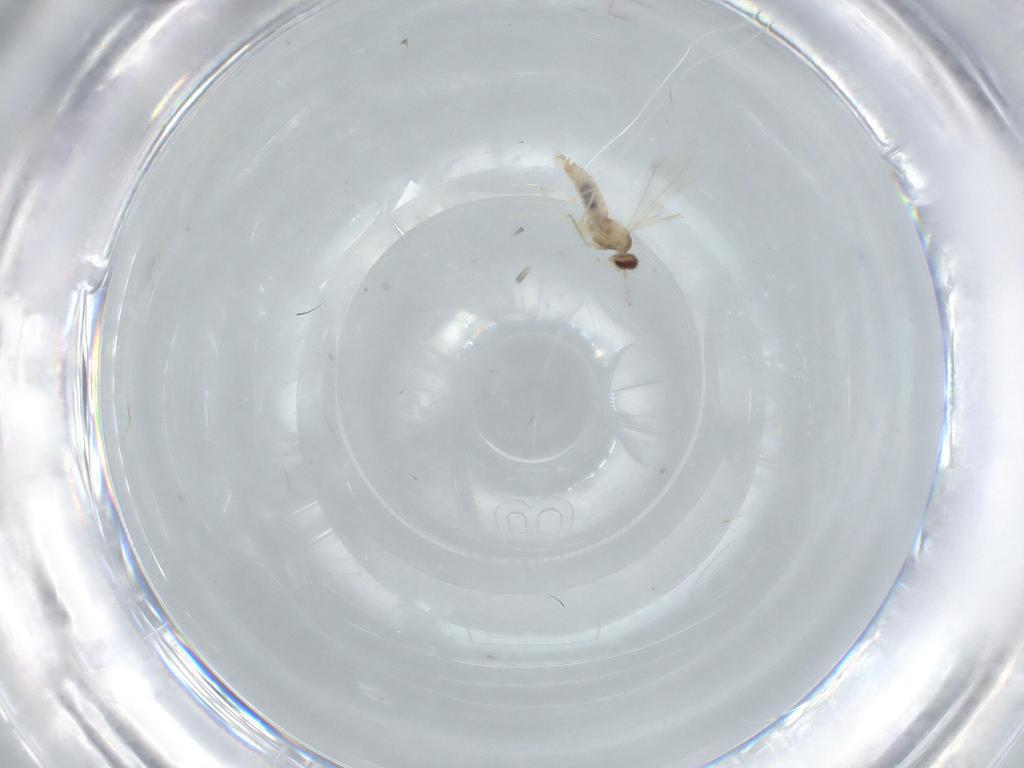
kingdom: Animalia
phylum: Arthropoda
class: Insecta
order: Diptera
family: Cecidomyiidae
